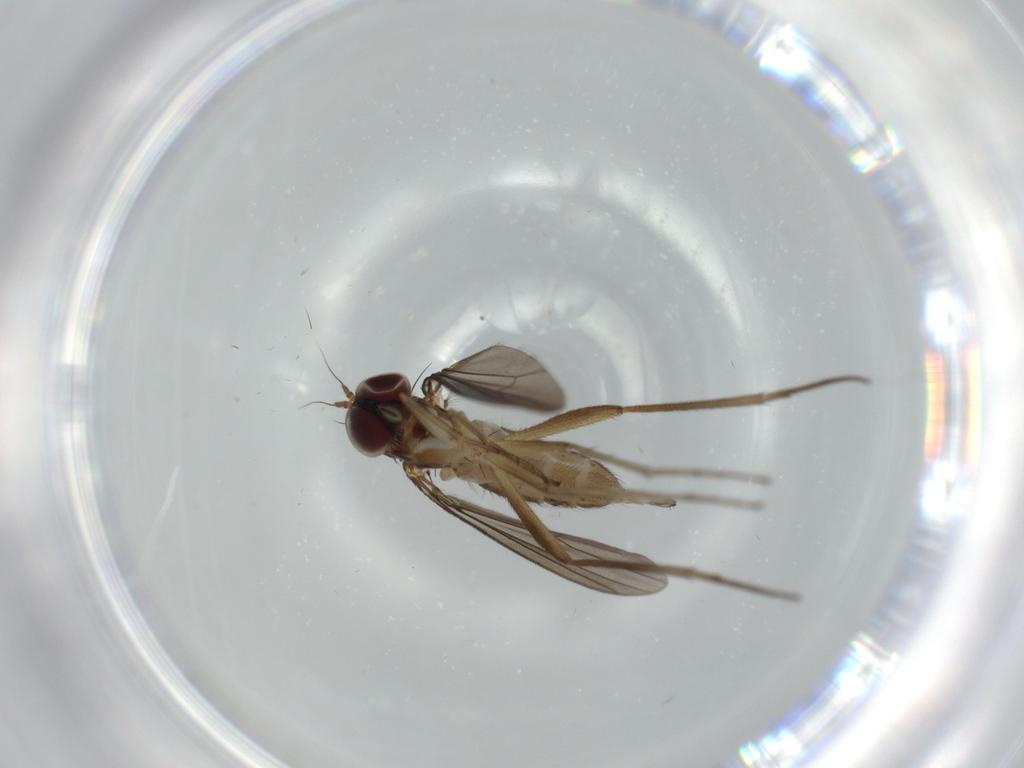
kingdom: Animalia
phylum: Arthropoda
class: Insecta
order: Diptera
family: Dolichopodidae
